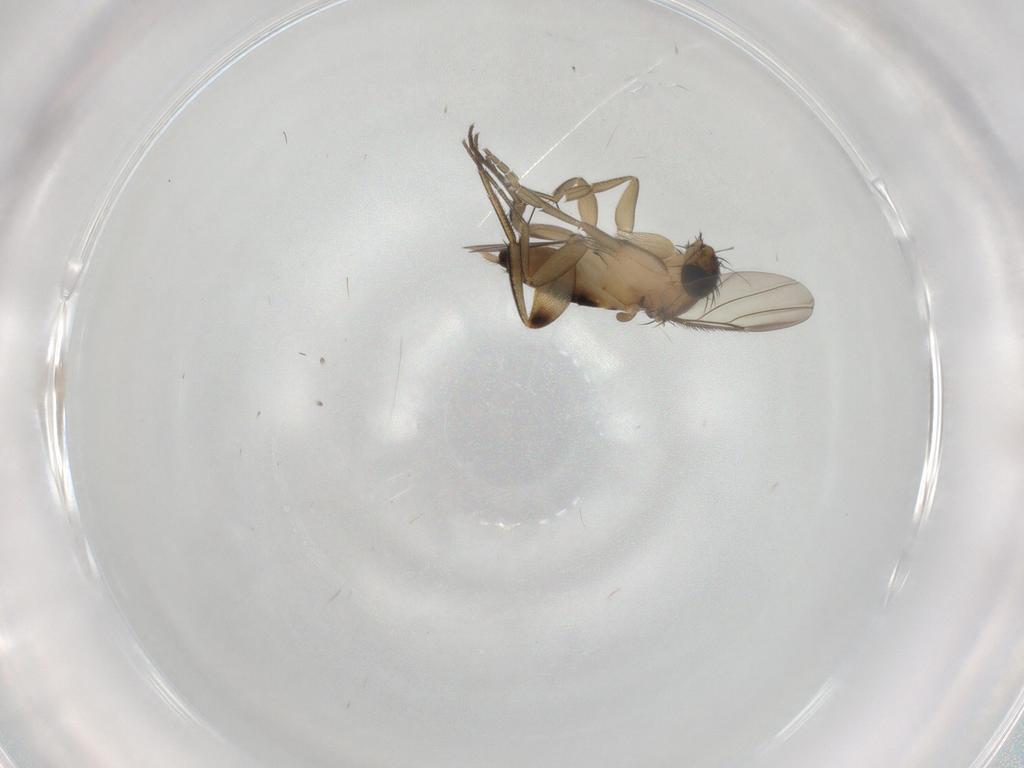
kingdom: Animalia
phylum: Arthropoda
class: Insecta
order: Diptera
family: Phoridae
